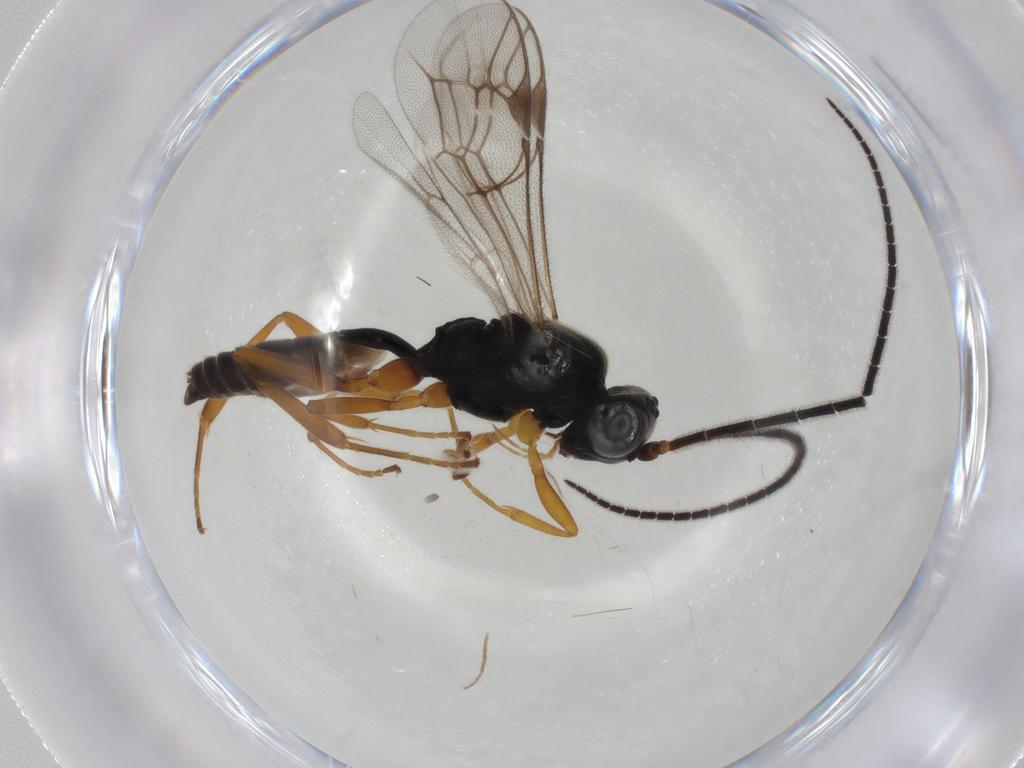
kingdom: Animalia
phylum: Arthropoda
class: Insecta
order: Hymenoptera
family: Ichneumonidae
